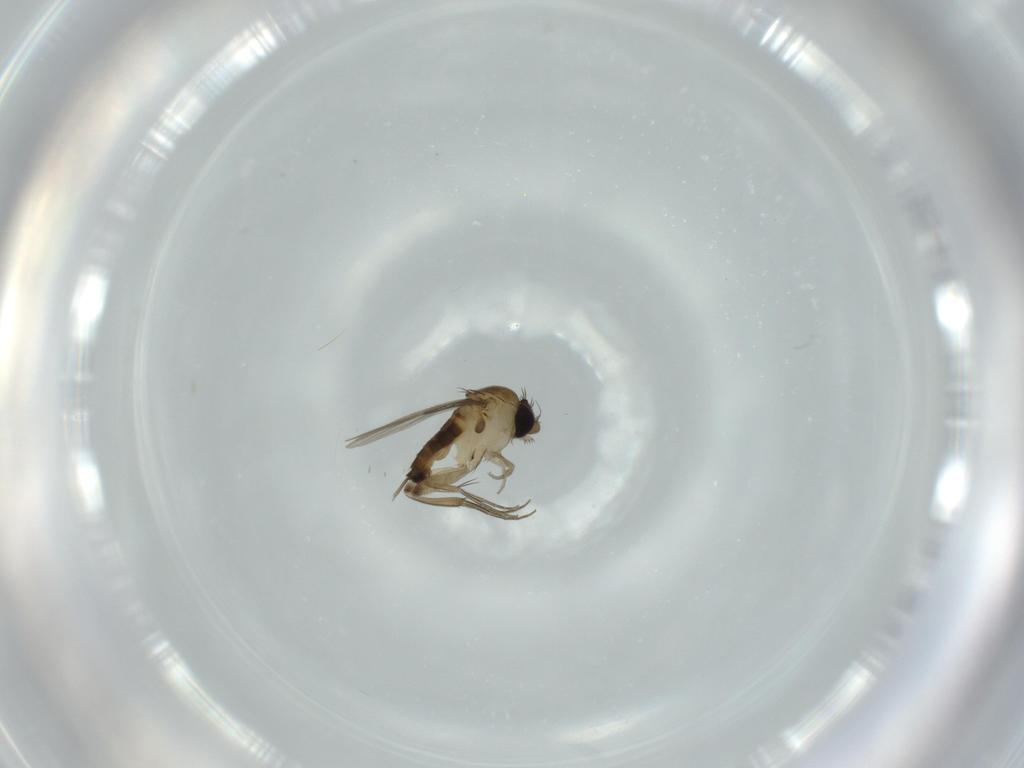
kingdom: Animalia
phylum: Arthropoda
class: Insecta
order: Diptera
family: Phoridae
